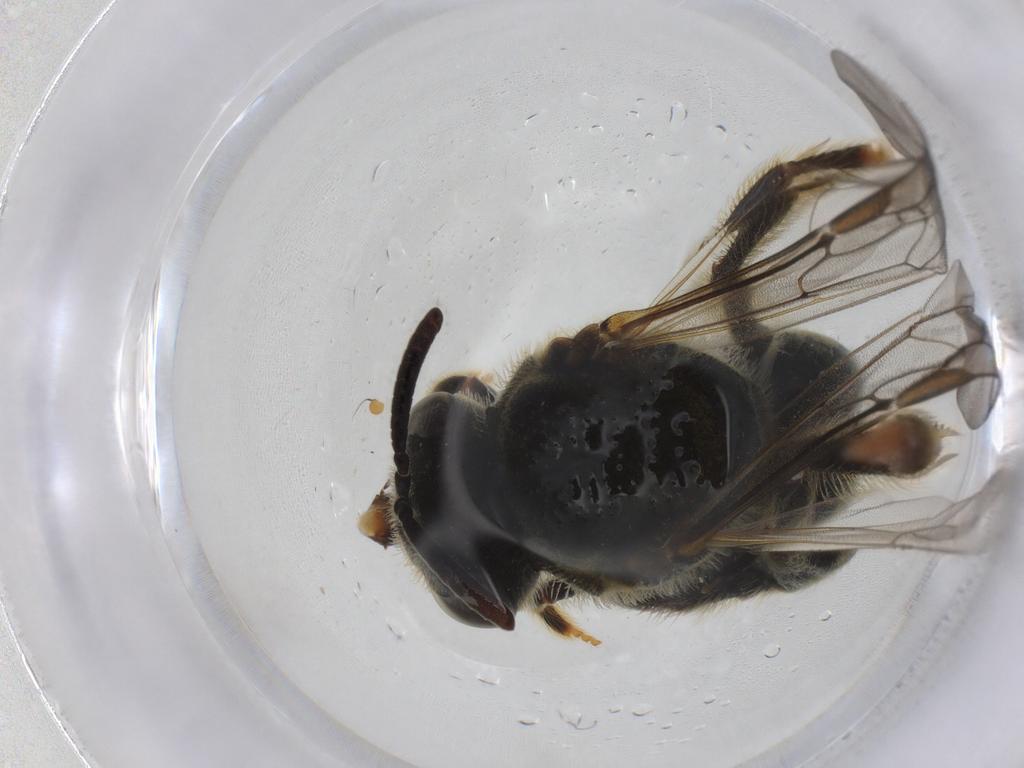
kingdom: Animalia
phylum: Arthropoda
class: Insecta
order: Hymenoptera
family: Halictidae
